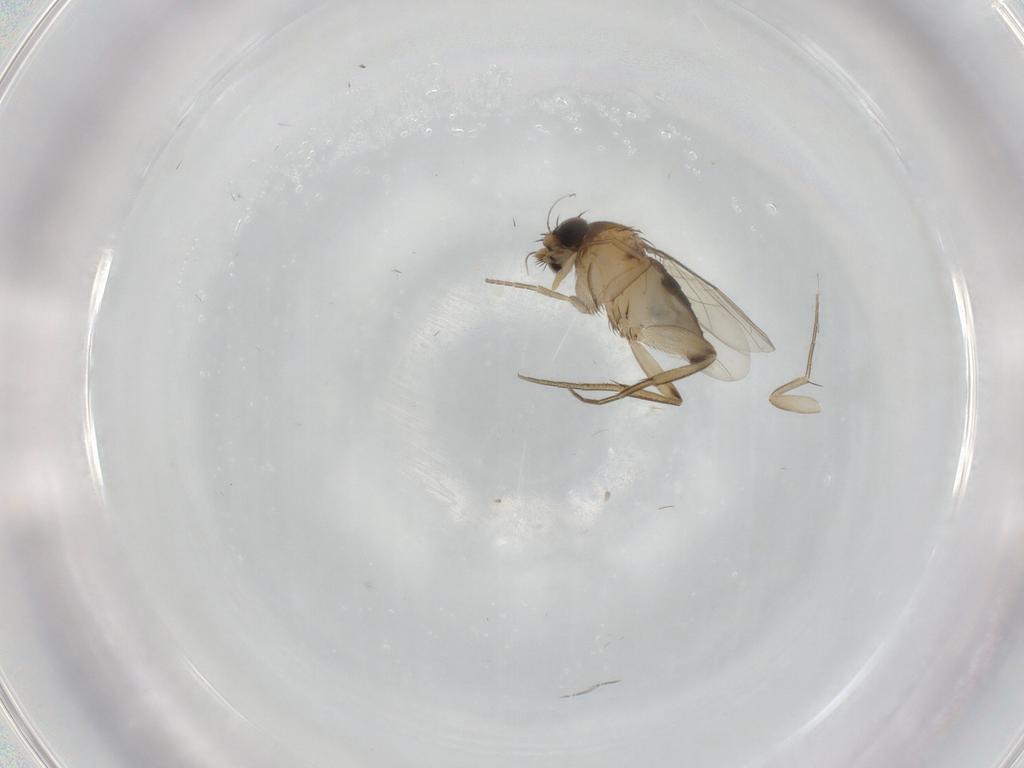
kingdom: Animalia
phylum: Arthropoda
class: Insecta
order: Diptera
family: Phoridae
